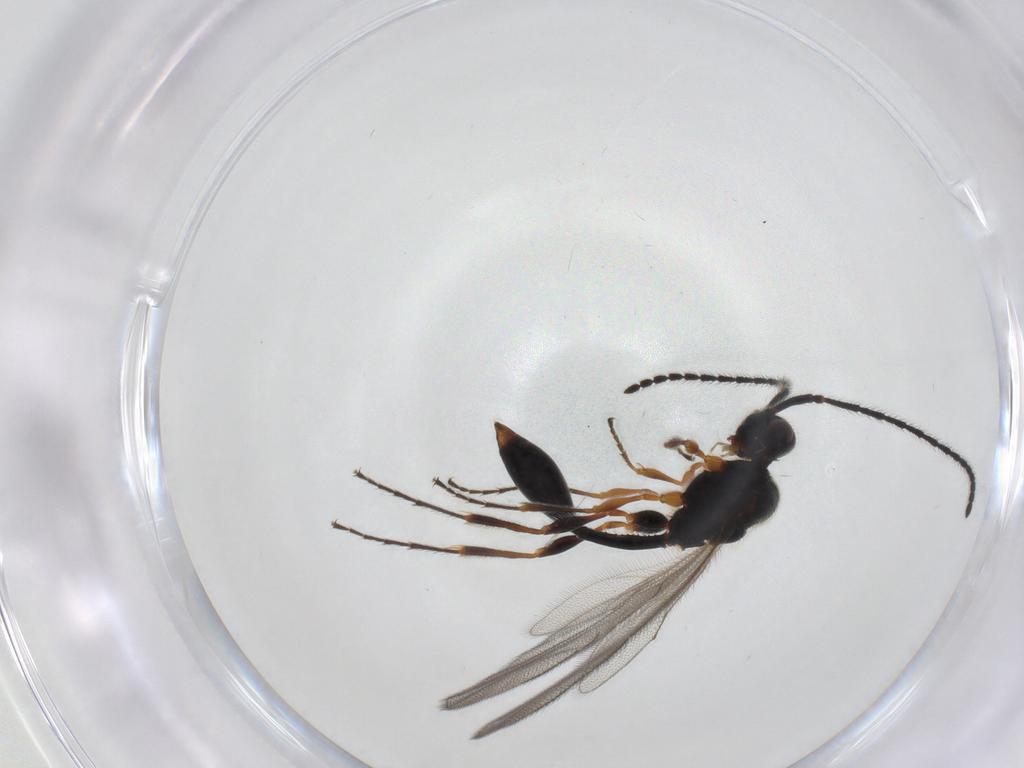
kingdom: Animalia
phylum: Arthropoda
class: Insecta
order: Hymenoptera
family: Diapriidae
